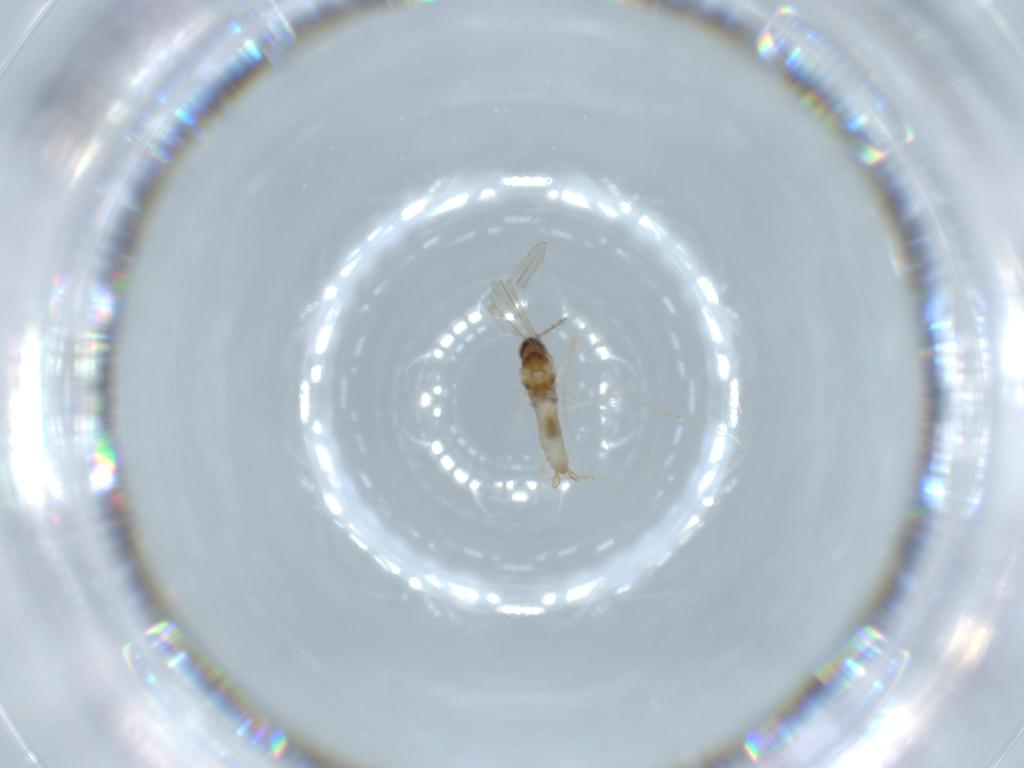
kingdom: Animalia
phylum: Arthropoda
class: Insecta
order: Diptera
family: Cecidomyiidae
